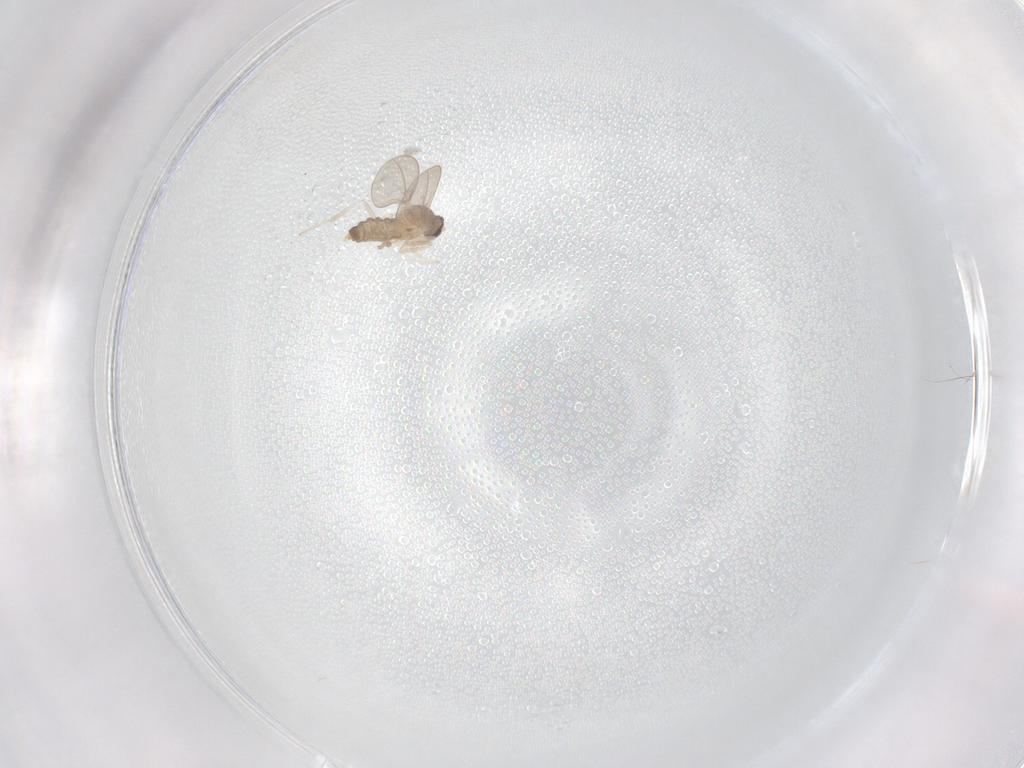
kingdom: Animalia
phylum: Arthropoda
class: Insecta
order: Diptera
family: Cecidomyiidae
